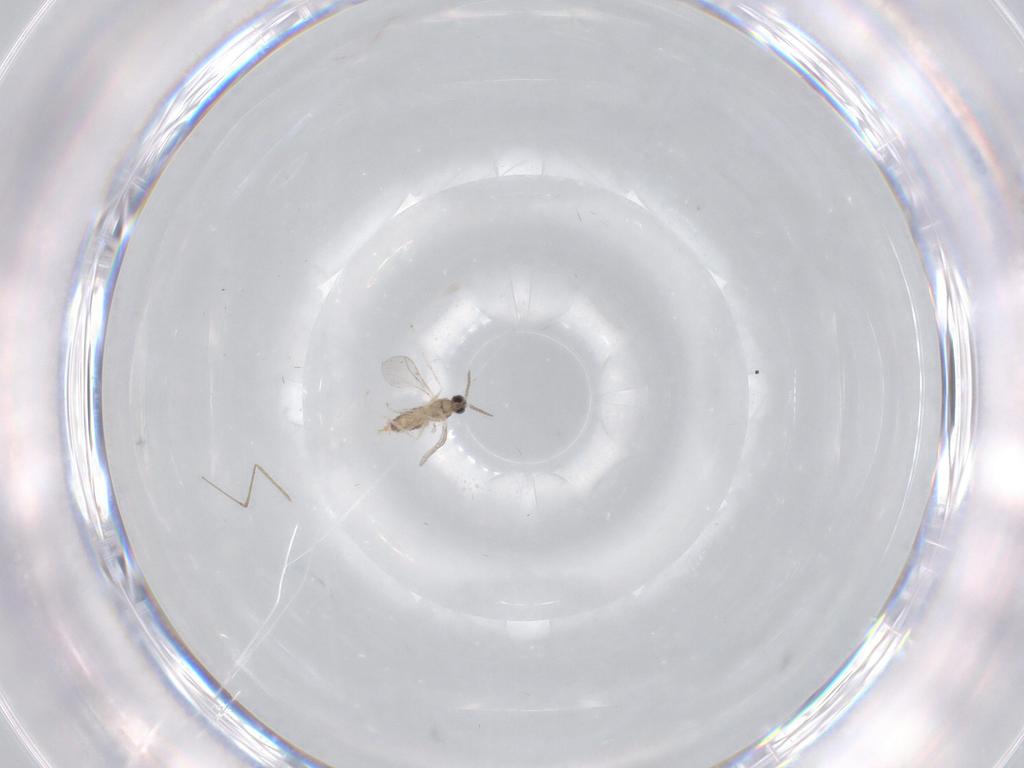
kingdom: Animalia
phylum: Arthropoda
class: Insecta
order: Diptera
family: Cecidomyiidae
